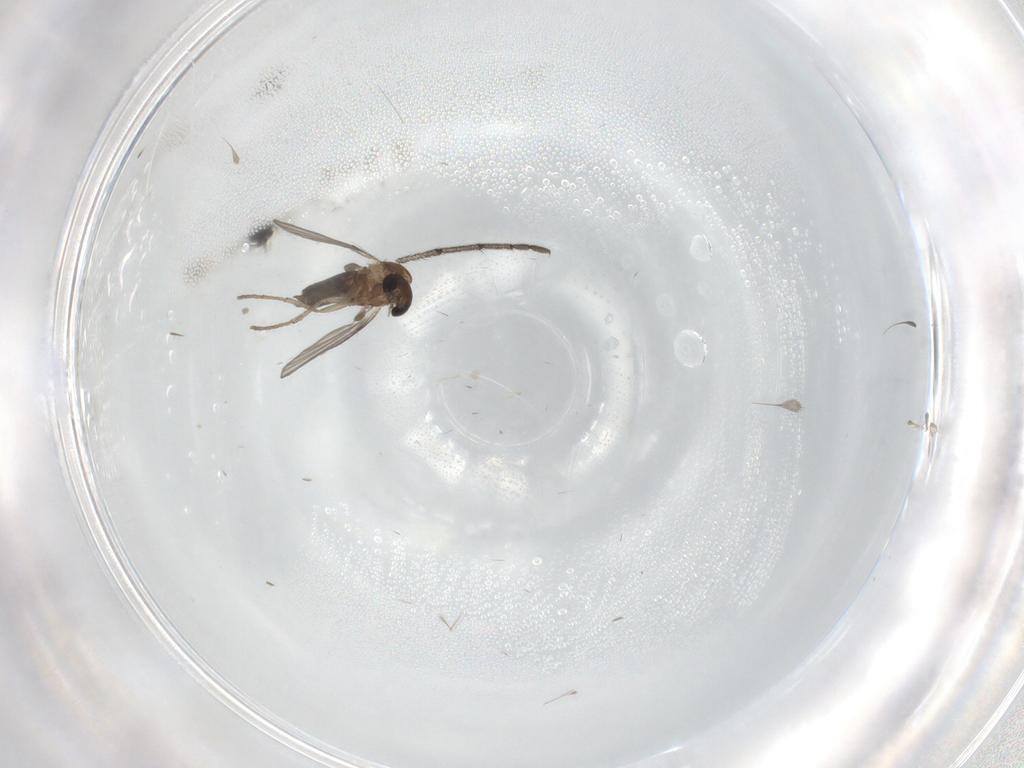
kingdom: Animalia
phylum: Arthropoda
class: Insecta
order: Diptera
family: Ditomyiidae
